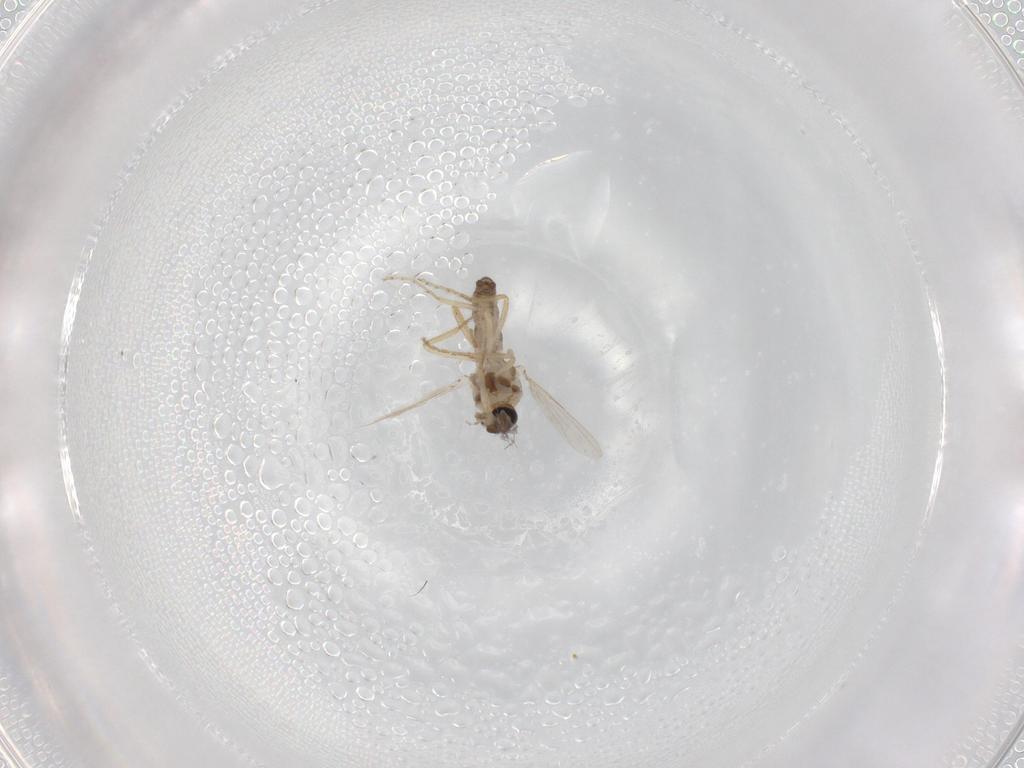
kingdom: Animalia
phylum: Arthropoda
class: Insecta
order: Diptera
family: Ceratopogonidae
